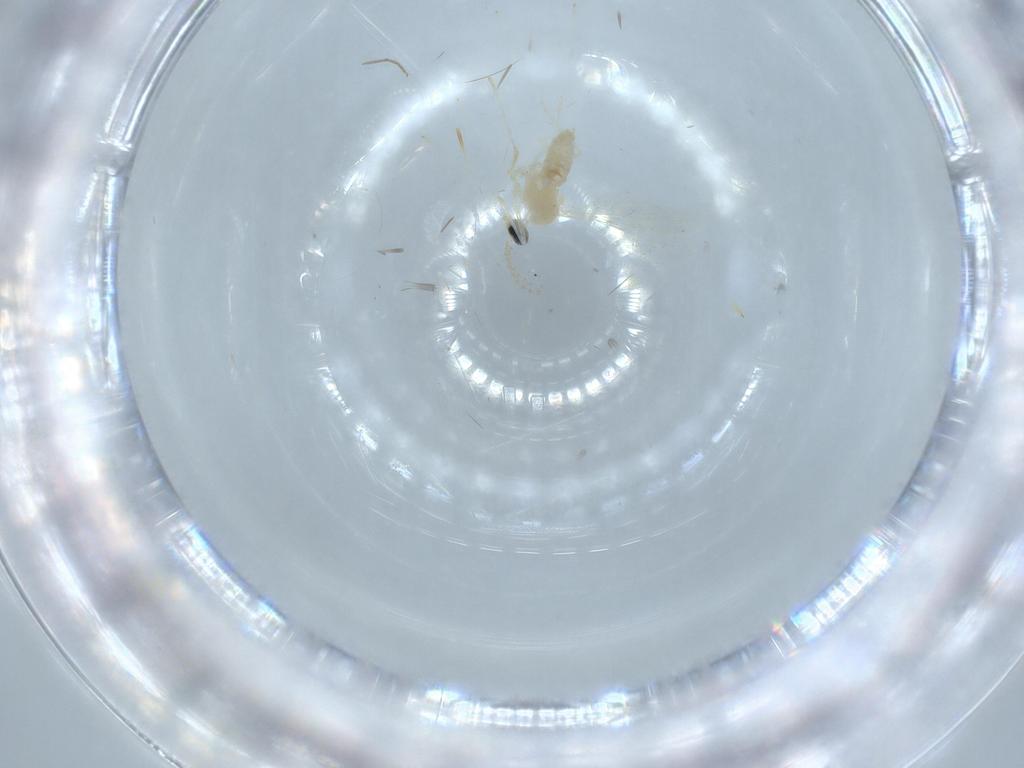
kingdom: Animalia
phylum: Arthropoda
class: Insecta
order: Diptera
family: Cecidomyiidae
